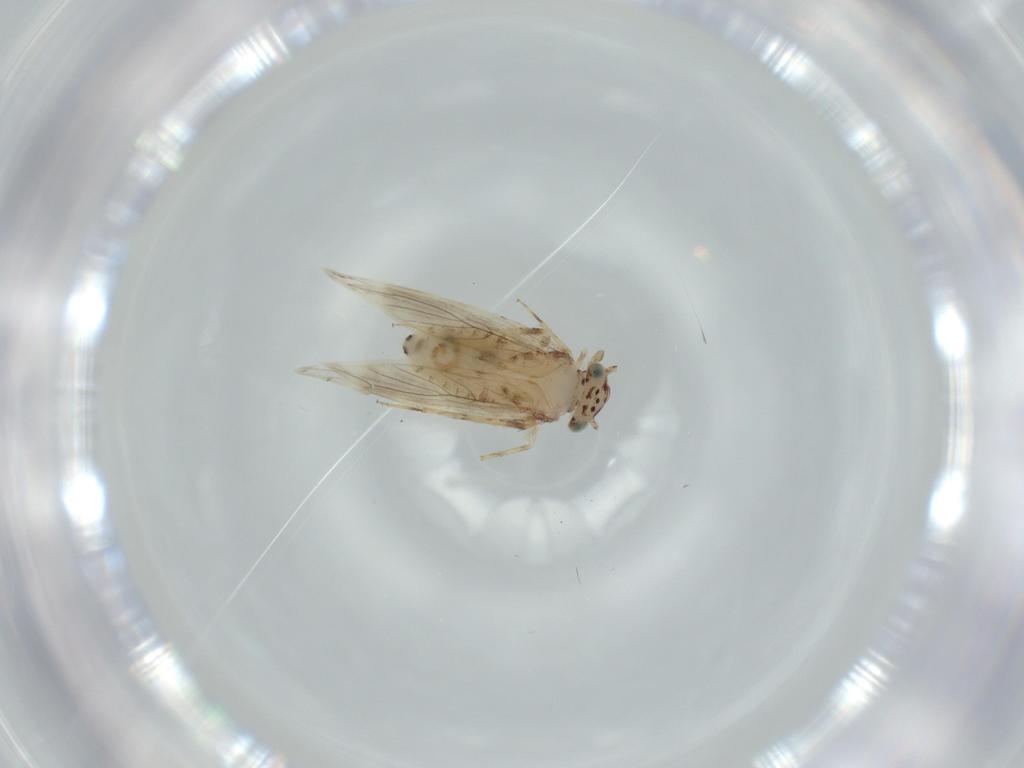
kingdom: Animalia
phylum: Arthropoda
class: Insecta
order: Psocodea
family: Lepidopsocidae
